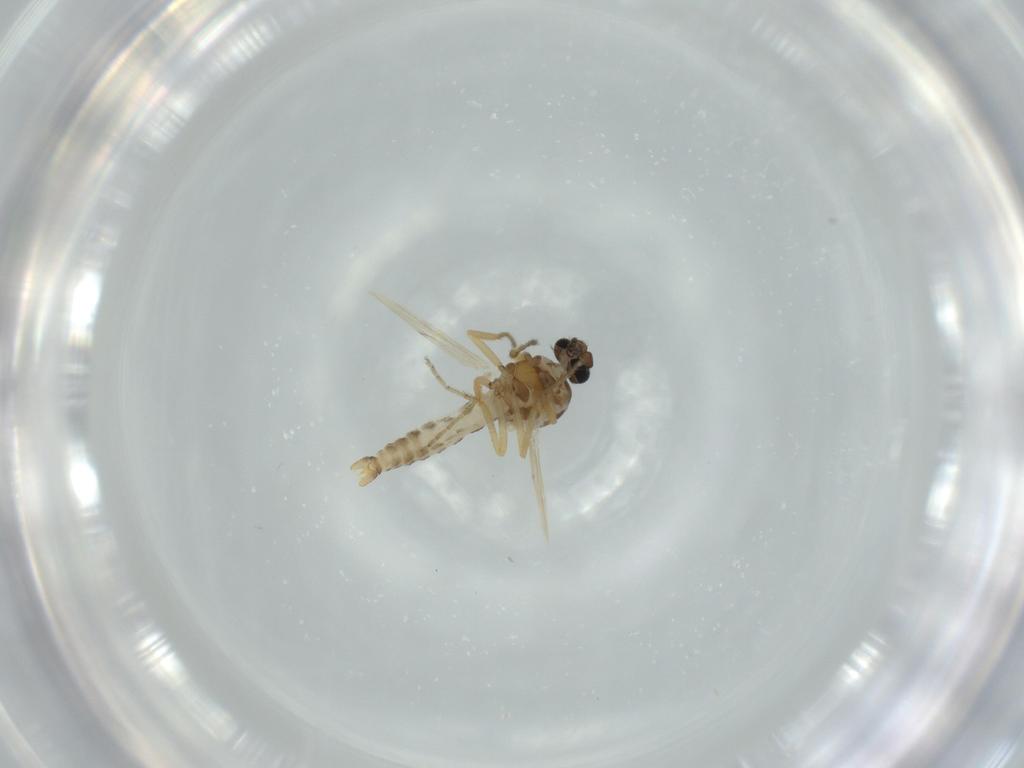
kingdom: Animalia
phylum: Arthropoda
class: Insecta
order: Diptera
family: Ceratopogonidae
